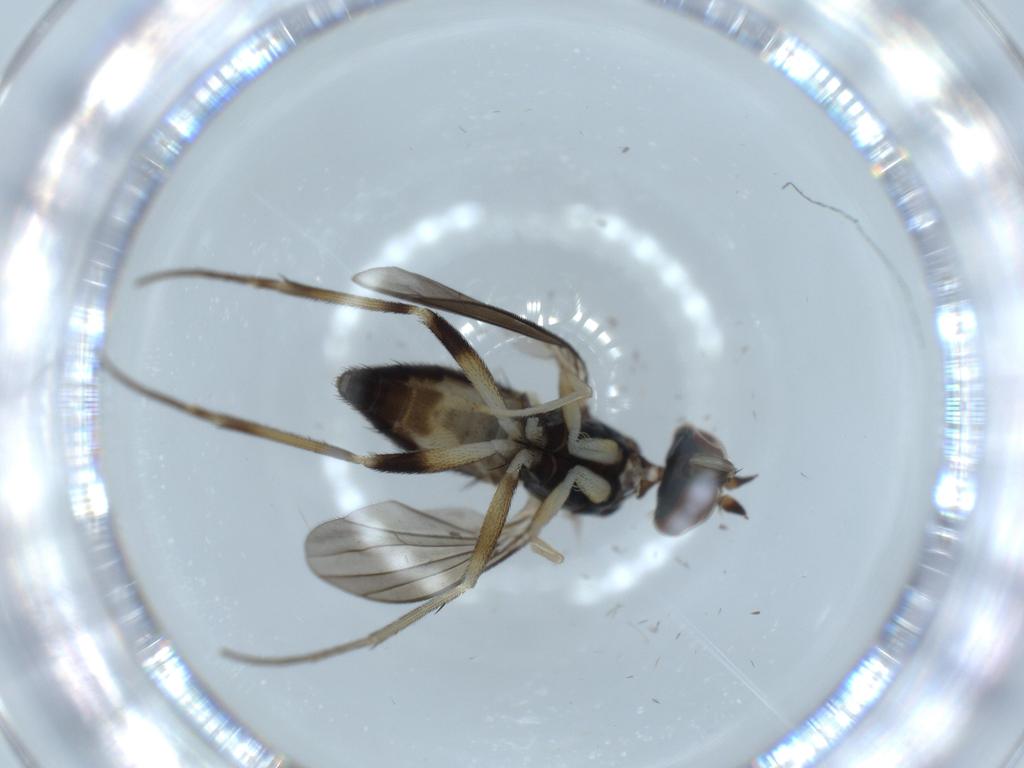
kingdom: Animalia
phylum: Arthropoda
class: Insecta
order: Diptera
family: Dolichopodidae
